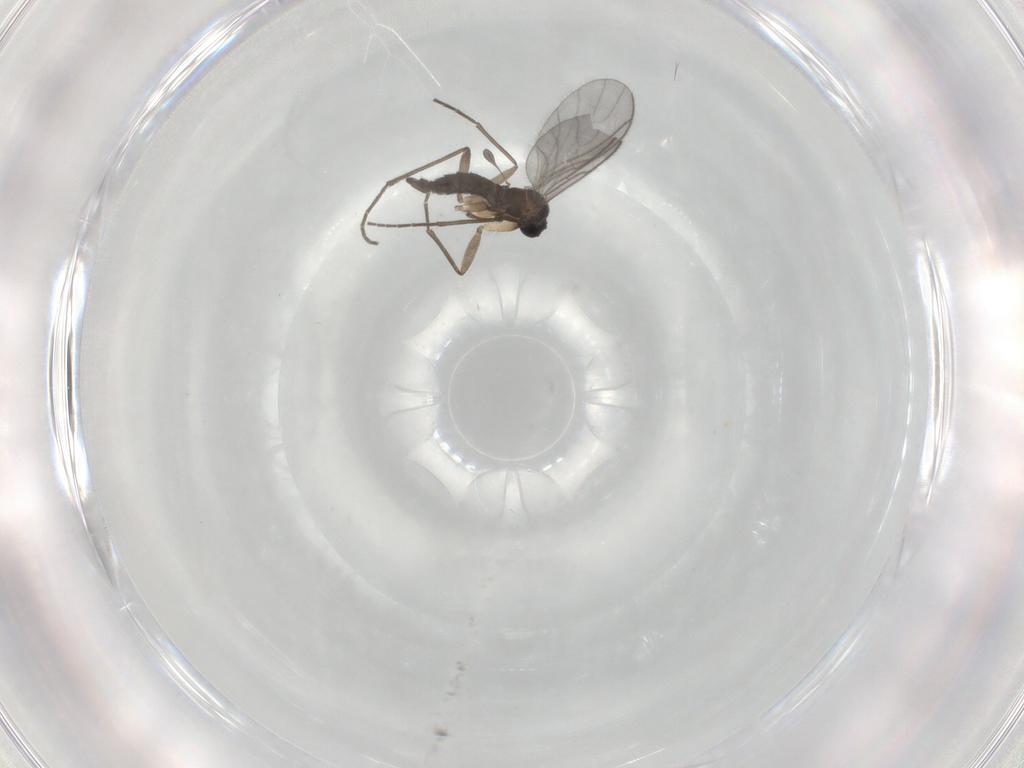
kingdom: Animalia
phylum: Arthropoda
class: Insecta
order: Diptera
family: Sciaridae
